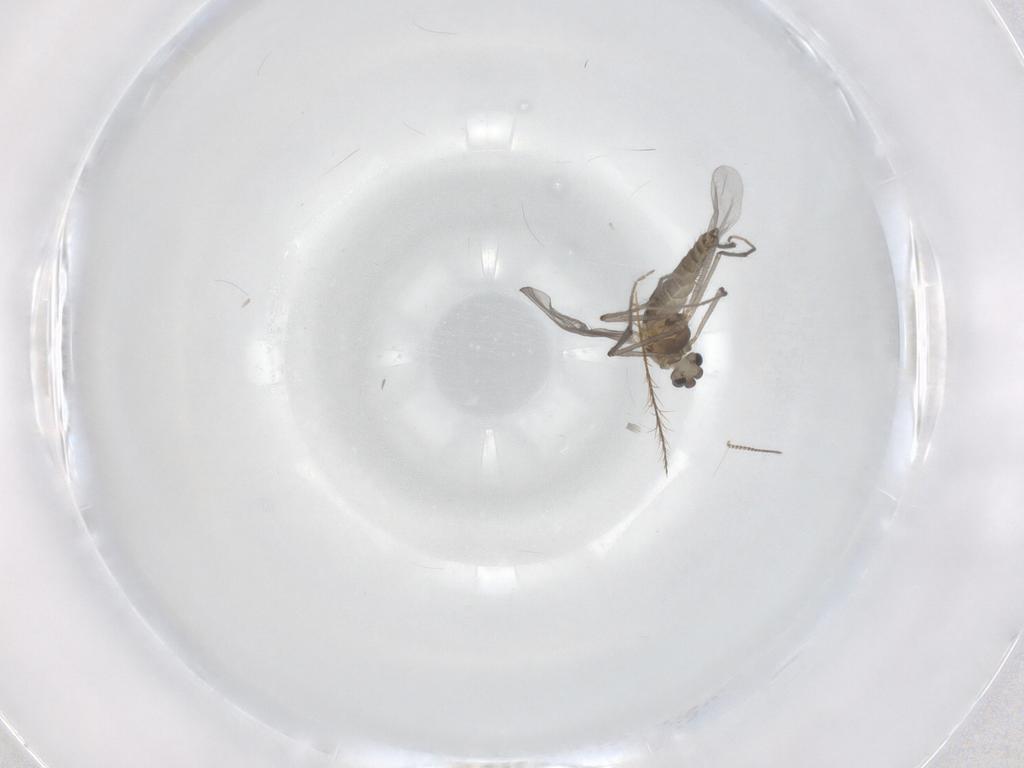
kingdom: Animalia
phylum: Arthropoda
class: Insecta
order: Diptera
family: Chironomidae
